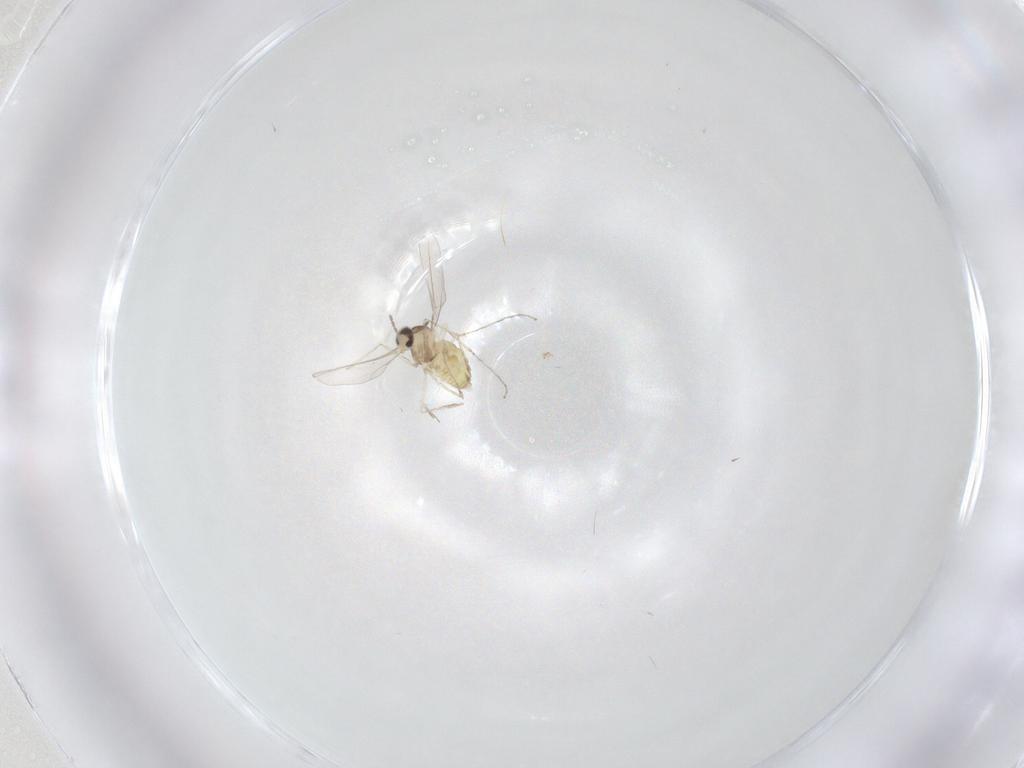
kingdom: Animalia
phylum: Arthropoda
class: Insecta
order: Diptera
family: Cecidomyiidae
